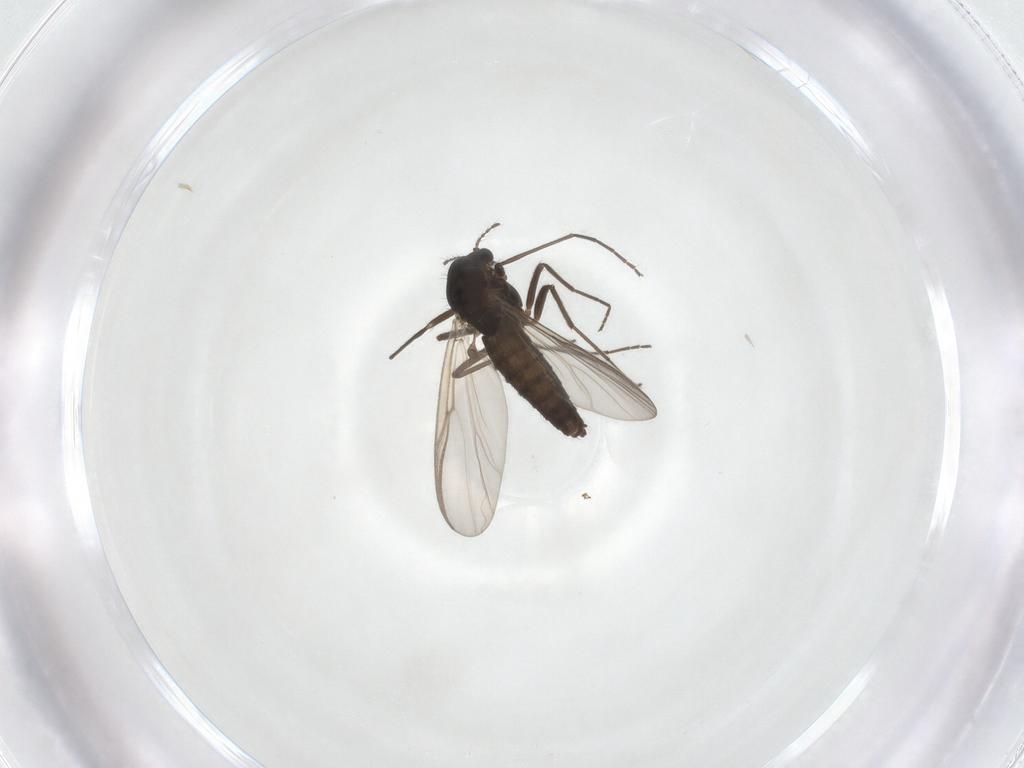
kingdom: Animalia
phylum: Arthropoda
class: Insecta
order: Diptera
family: Chironomidae
